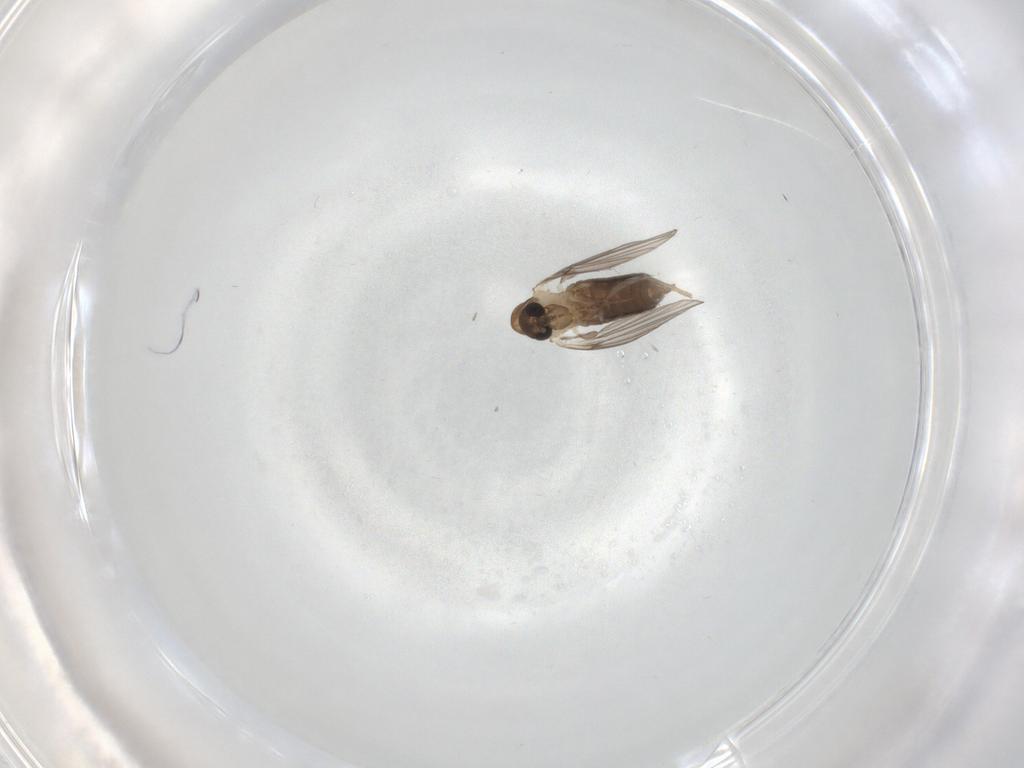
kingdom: Animalia
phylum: Arthropoda
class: Insecta
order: Diptera
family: Psychodidae
